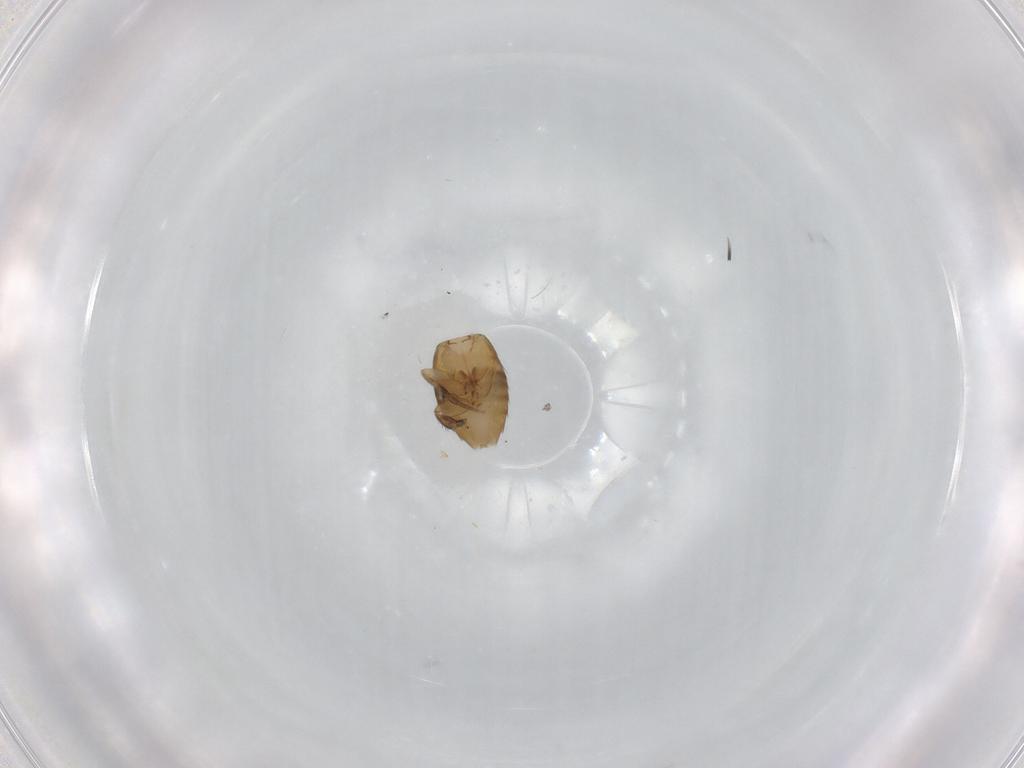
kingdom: Animalia
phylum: Arthropoda
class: Insecta
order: Diptera
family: Phoridae
